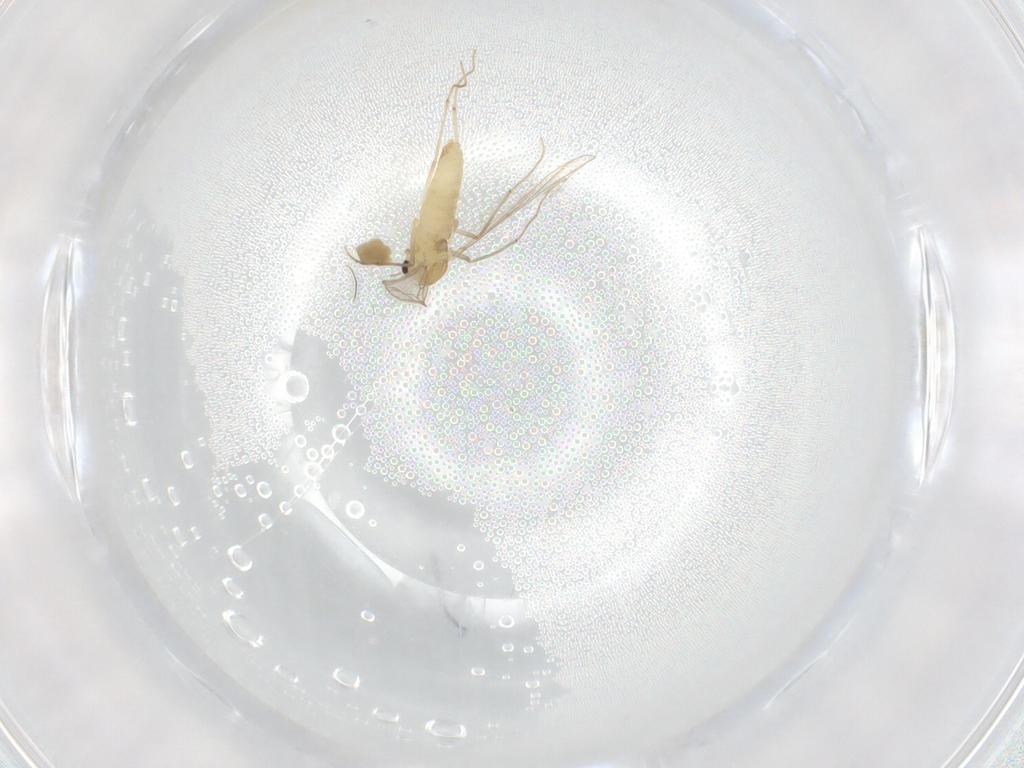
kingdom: Animalia
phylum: Arthropoda
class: Insecta
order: Diptera
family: Chironomidae
